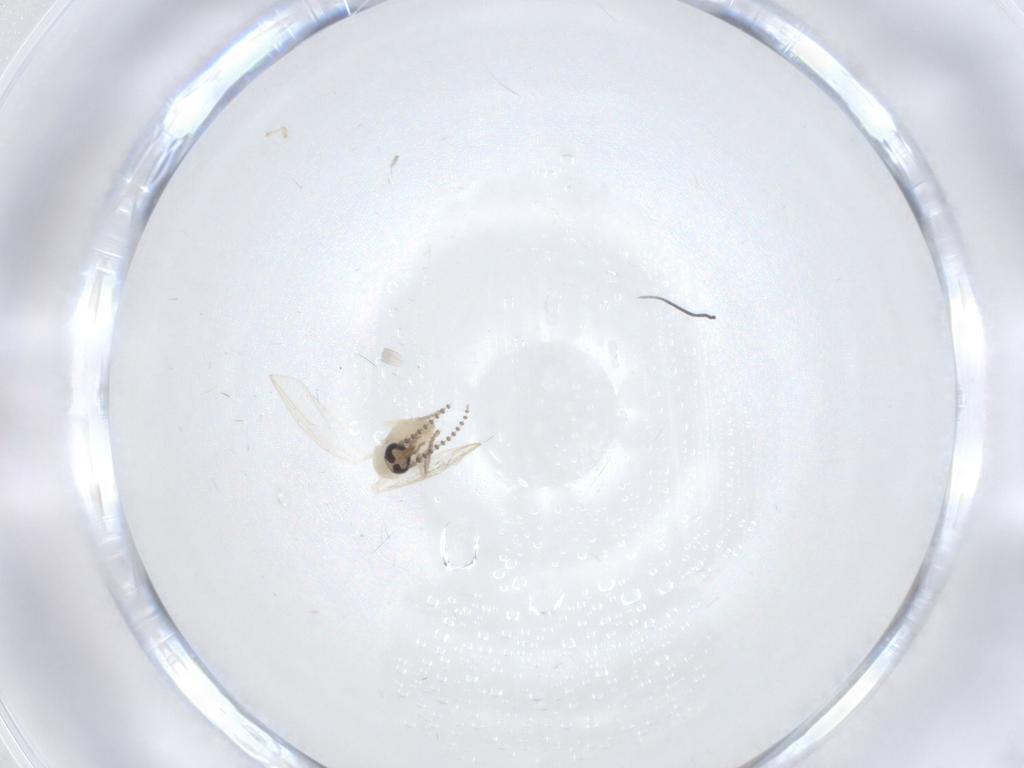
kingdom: Animalia
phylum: Arthropoda
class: Insecta
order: Diptera
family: Psychodidae
